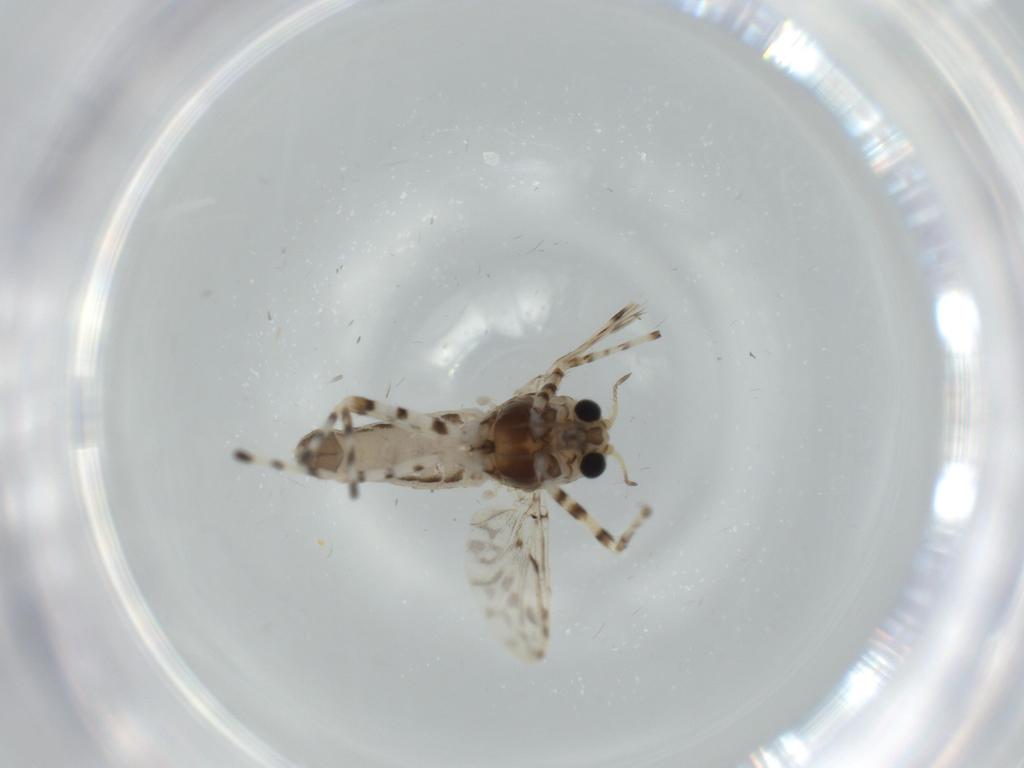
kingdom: Animalia
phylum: Arthropoda
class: Insecta
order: Diptera
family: Chironomidae
